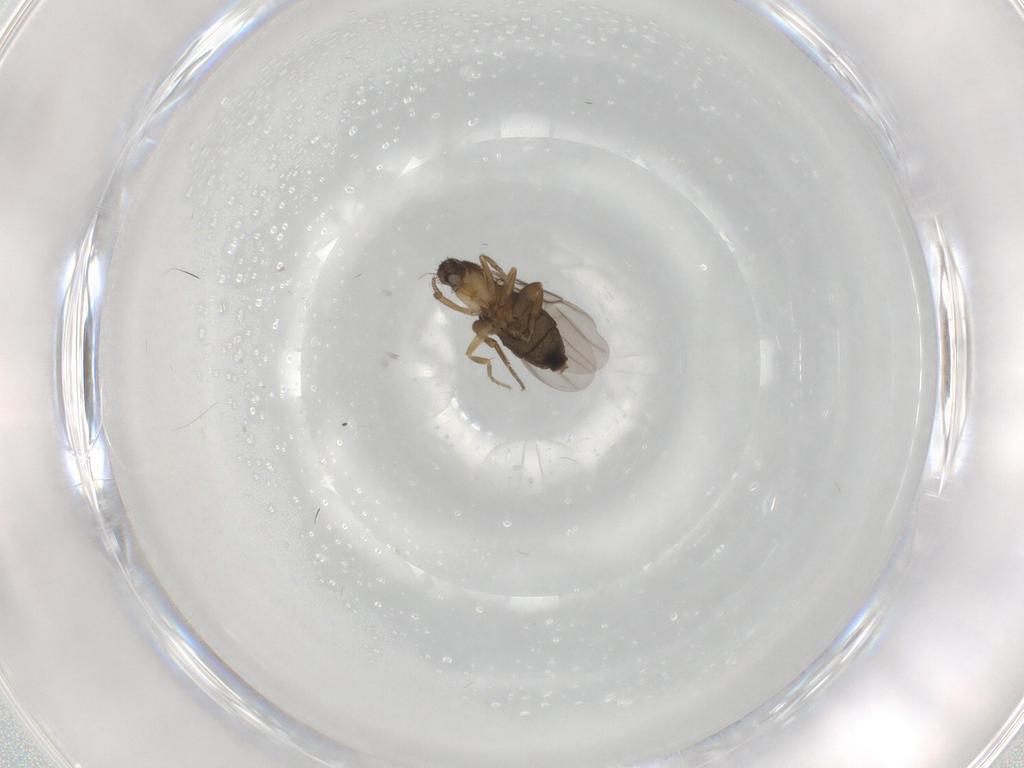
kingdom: Animalia
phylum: Arthropoda
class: Insecta
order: Diptera
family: Phoridae
